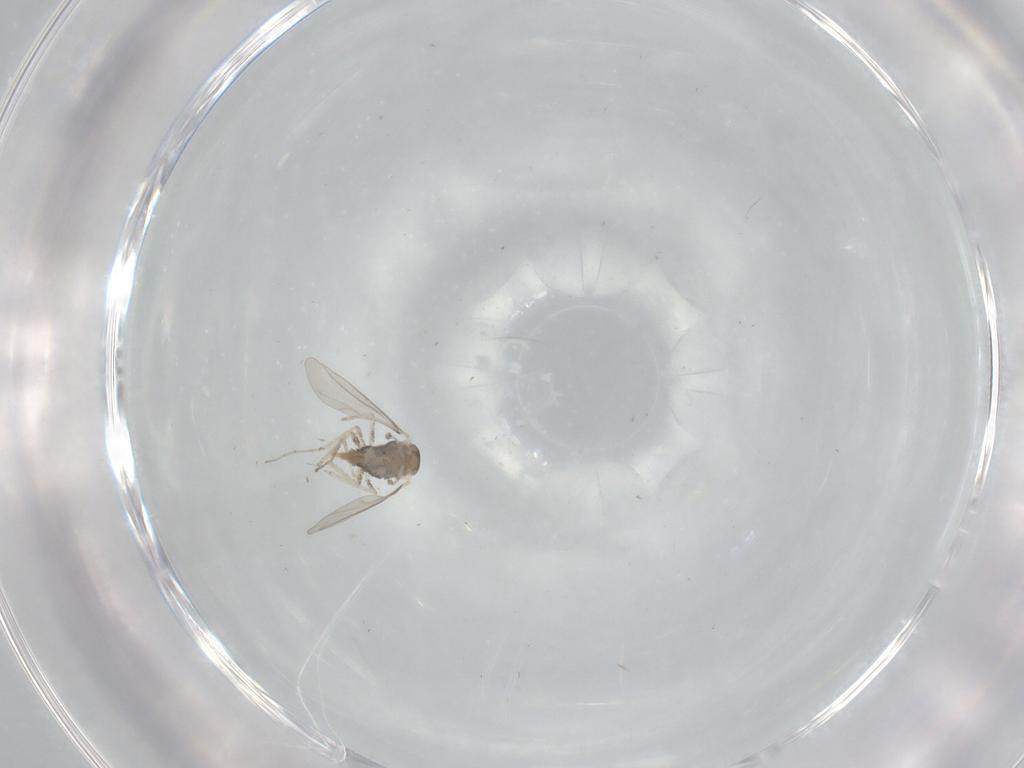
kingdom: Animalia
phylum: Arthropoda
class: Insecta
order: Diptera
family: Cecidomyiidae
